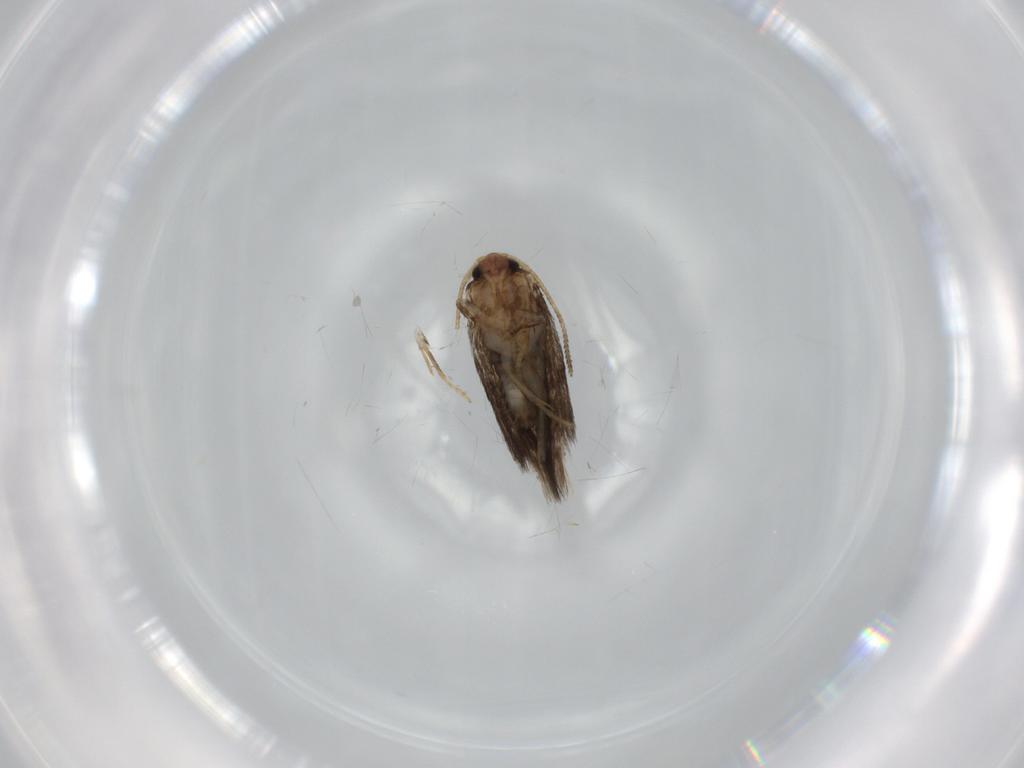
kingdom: Animalia
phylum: Arthropoda
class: Insecta
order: Lepidoptera
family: Nepticulidae
